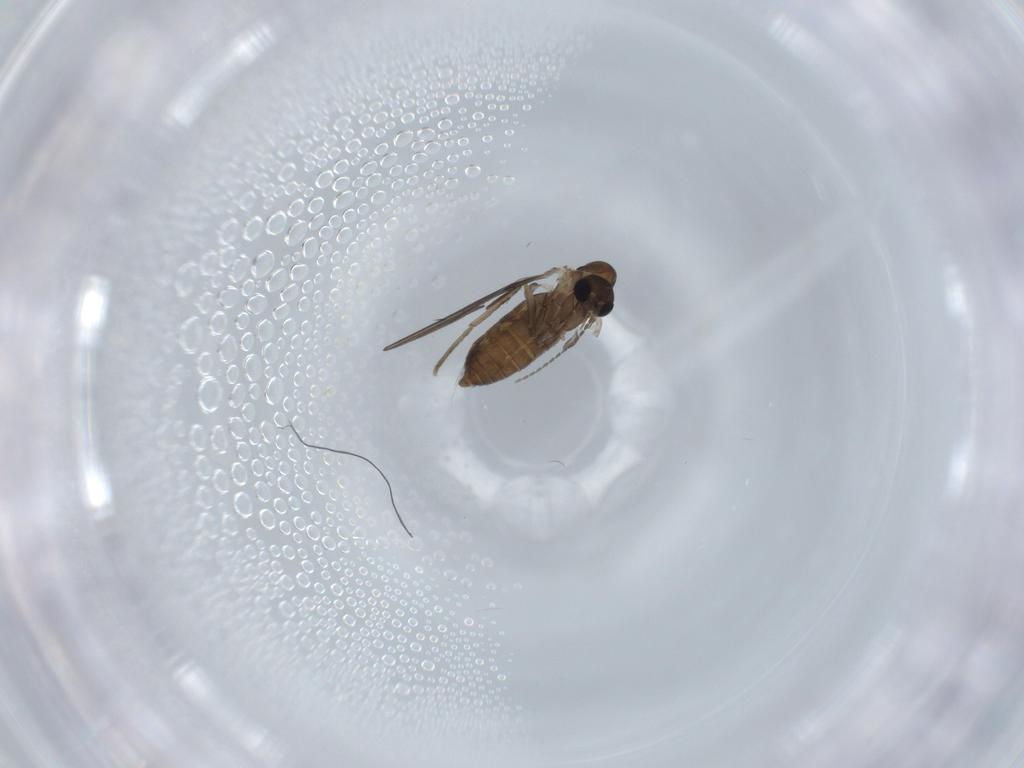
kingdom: Animalia
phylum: Arthropoda
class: Insecta
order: Diptera
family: Psychodidae
